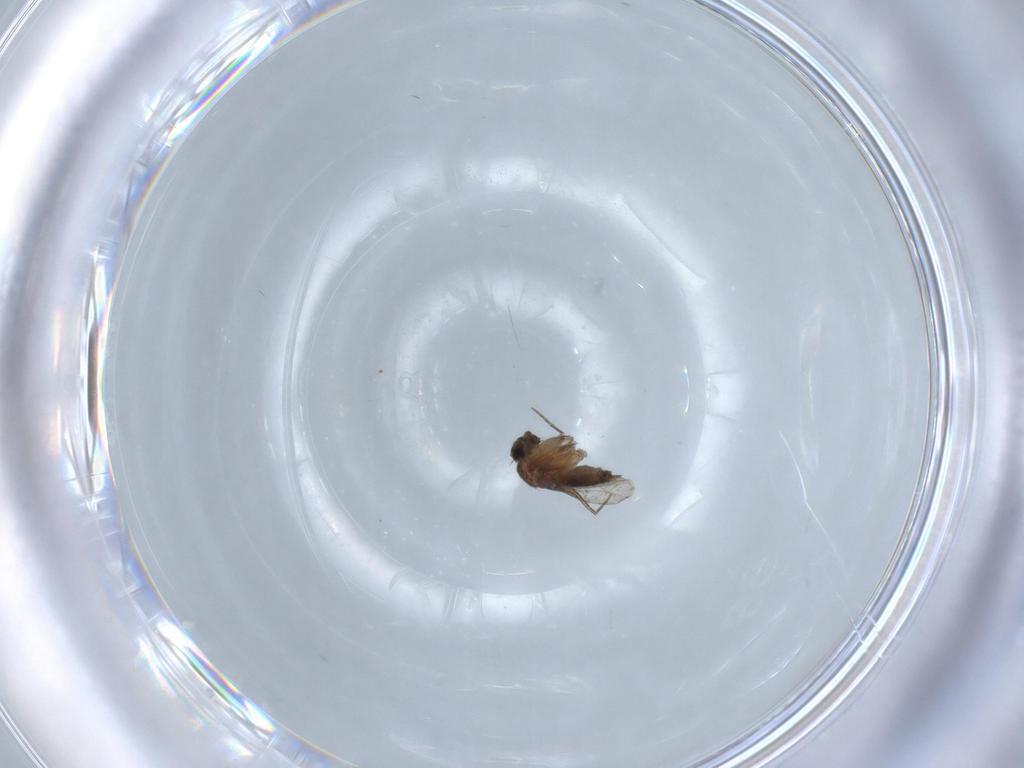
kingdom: Animalia
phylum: Arthropoda
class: Insecta
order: Diptera
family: Phoridae
